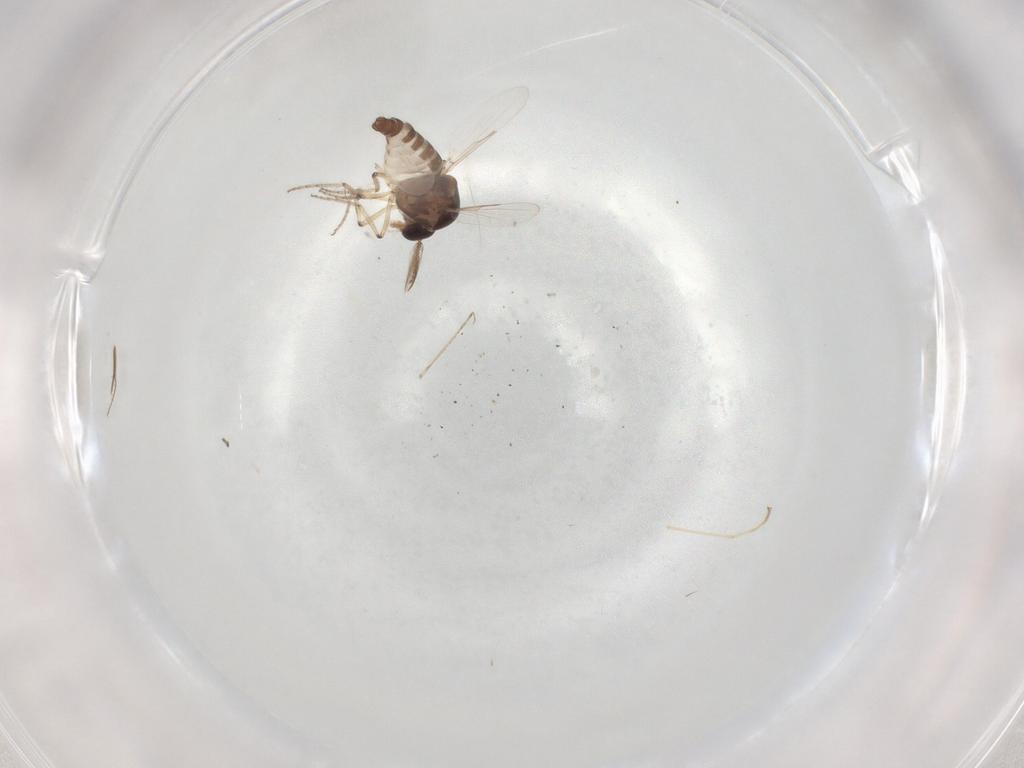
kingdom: Animalia
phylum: Arthropoda
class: Insecta
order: Diptera
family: Ceratopogonidae
